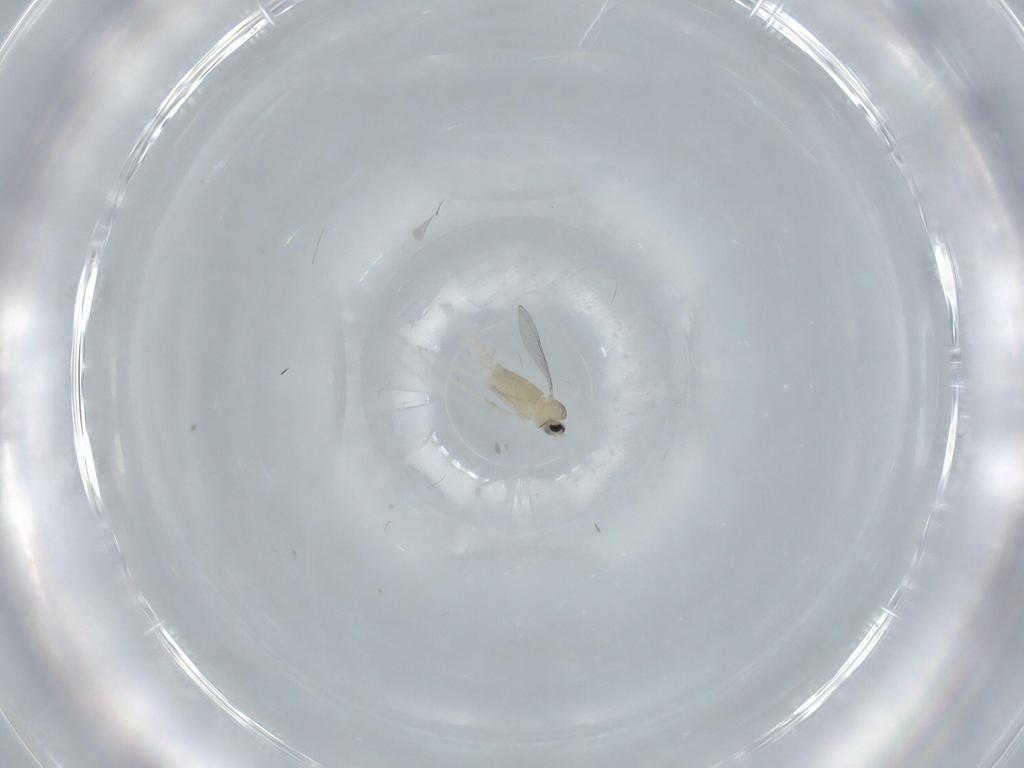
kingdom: Animalia
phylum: Arthropoda
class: Insecta
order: Diptera
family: Cecidomyiidae
